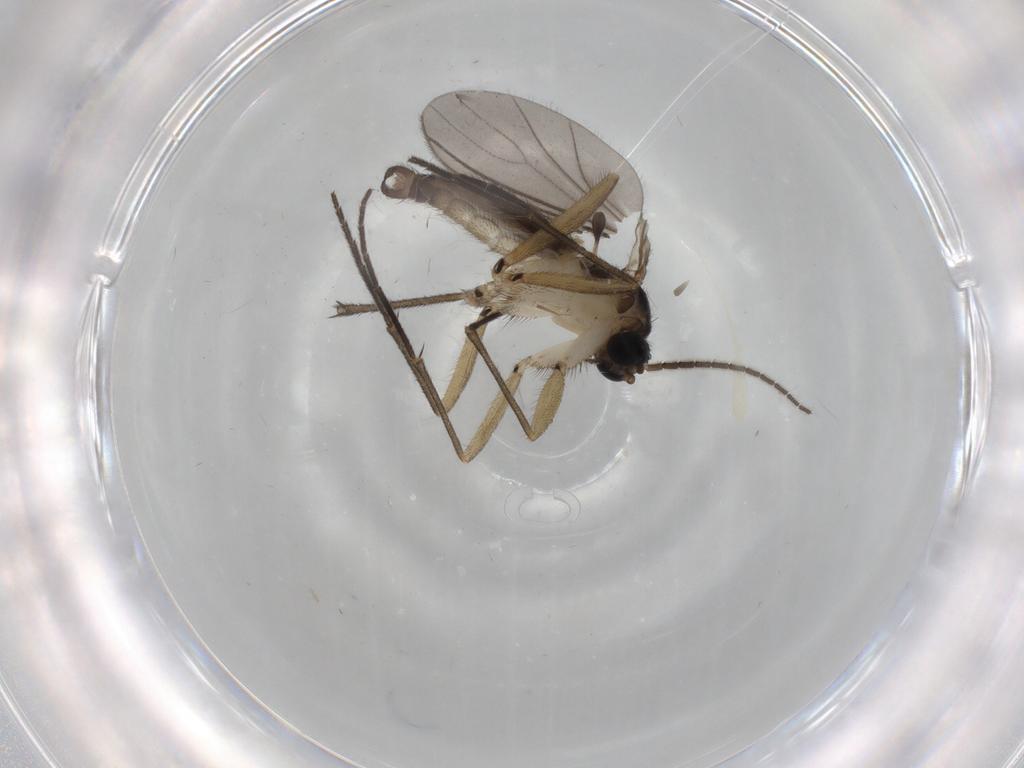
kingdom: Animalia
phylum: Arthropoda
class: Insecta
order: Diptera
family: Sciaridae
